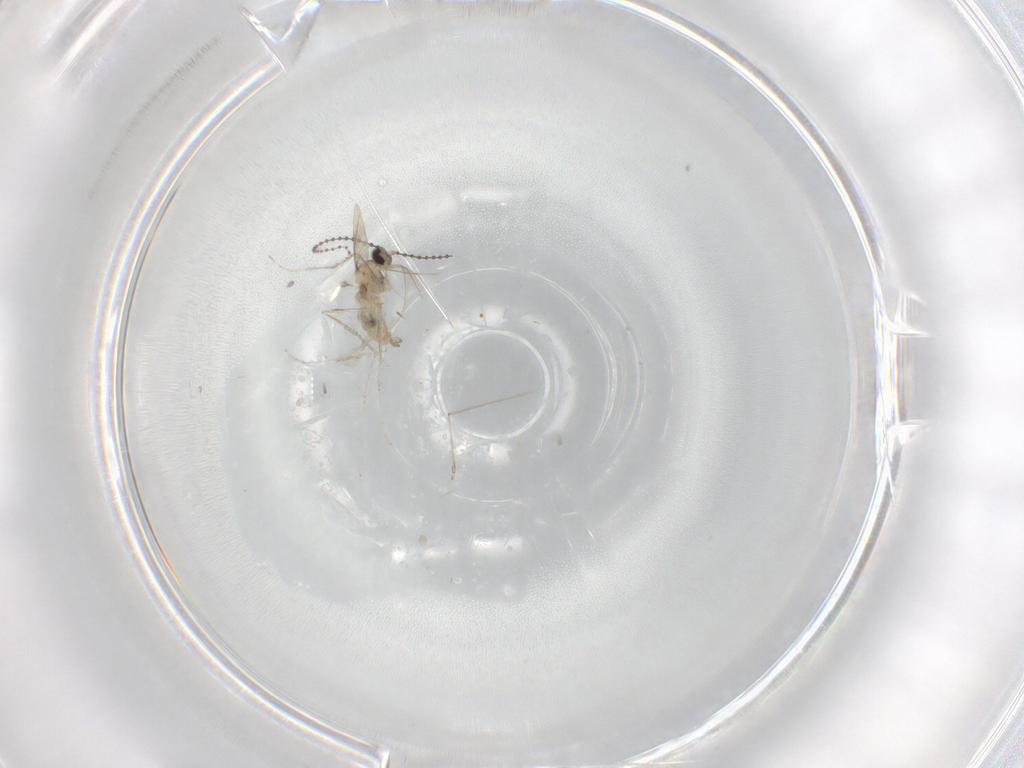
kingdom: Animalia
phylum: Arthropoda
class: Insecta
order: Diptera
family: Cecidomyiidae
